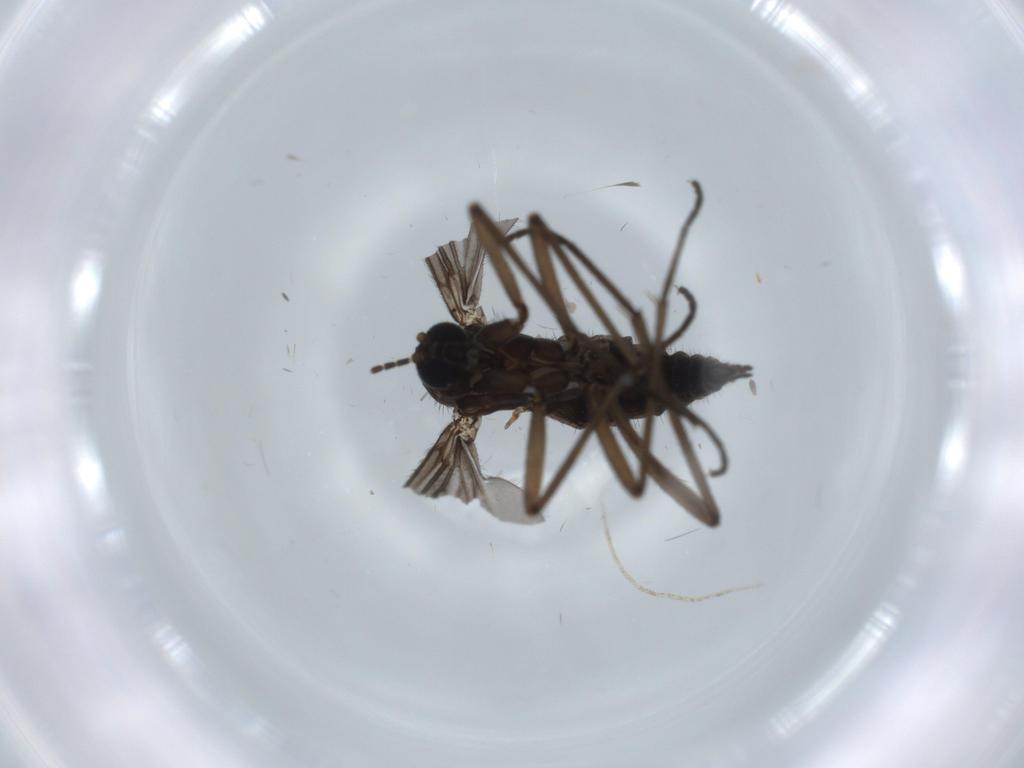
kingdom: Animalia
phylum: Arthropoda
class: Insecta
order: Diptera
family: Sciaridae
